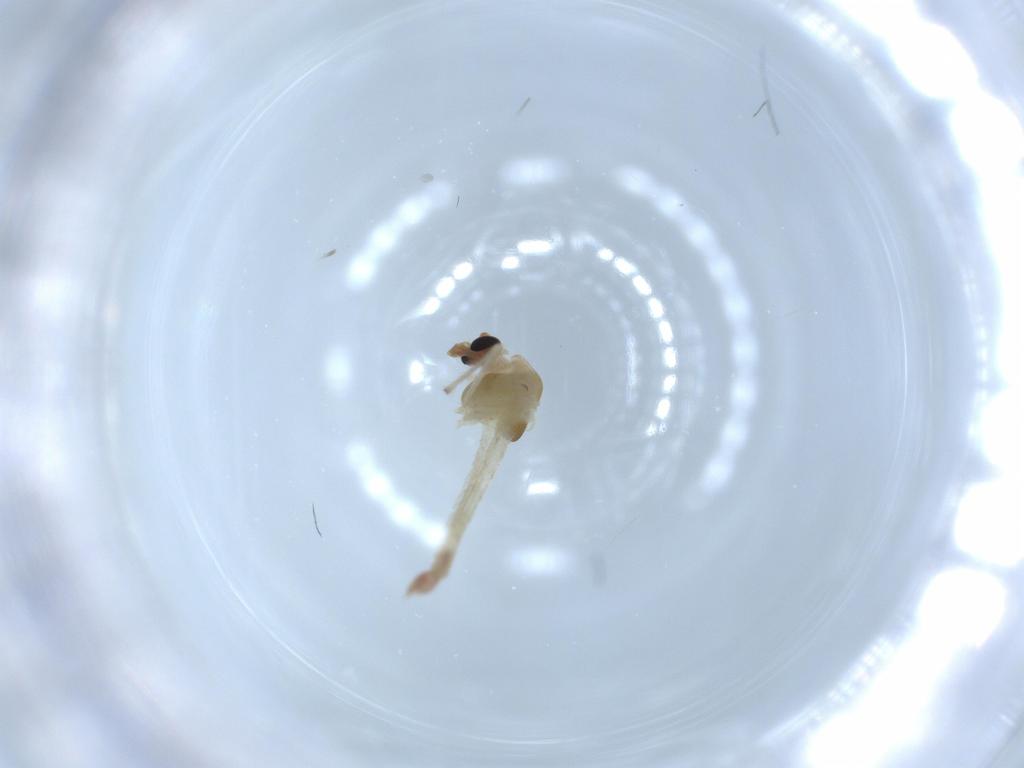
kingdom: Animalia
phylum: Arthropoda
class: Insecta
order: Diptera
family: Chironomidae
